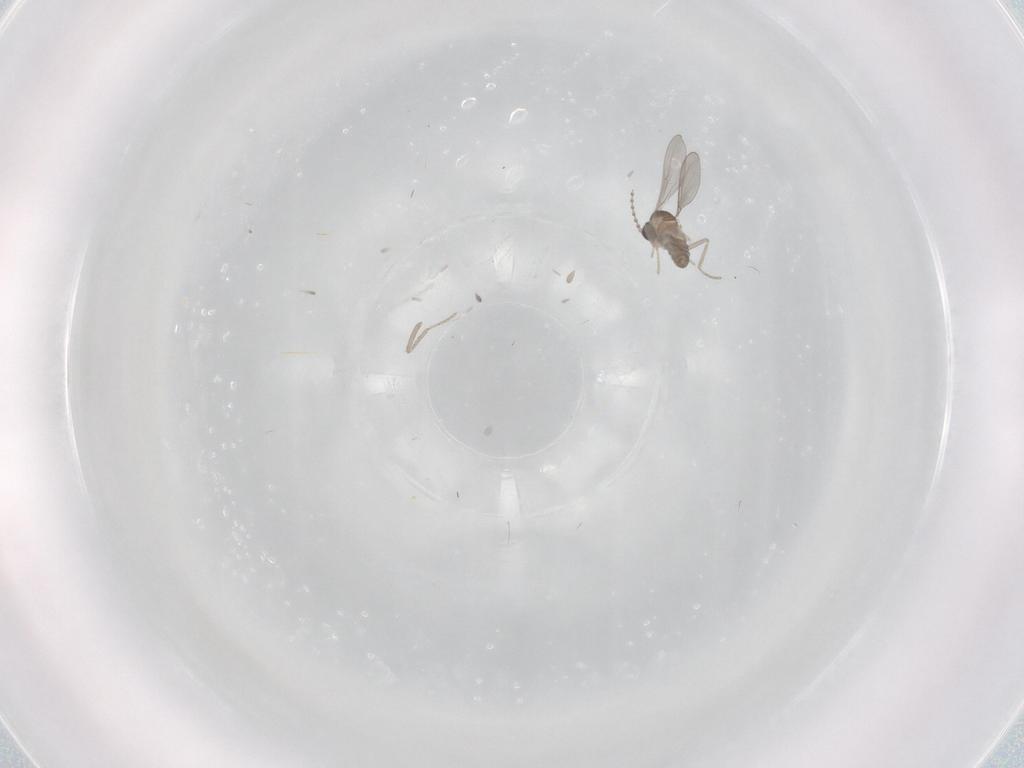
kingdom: Animalia
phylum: Arthropoda
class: Insecta
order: Diptera
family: Cecidomyiidae
